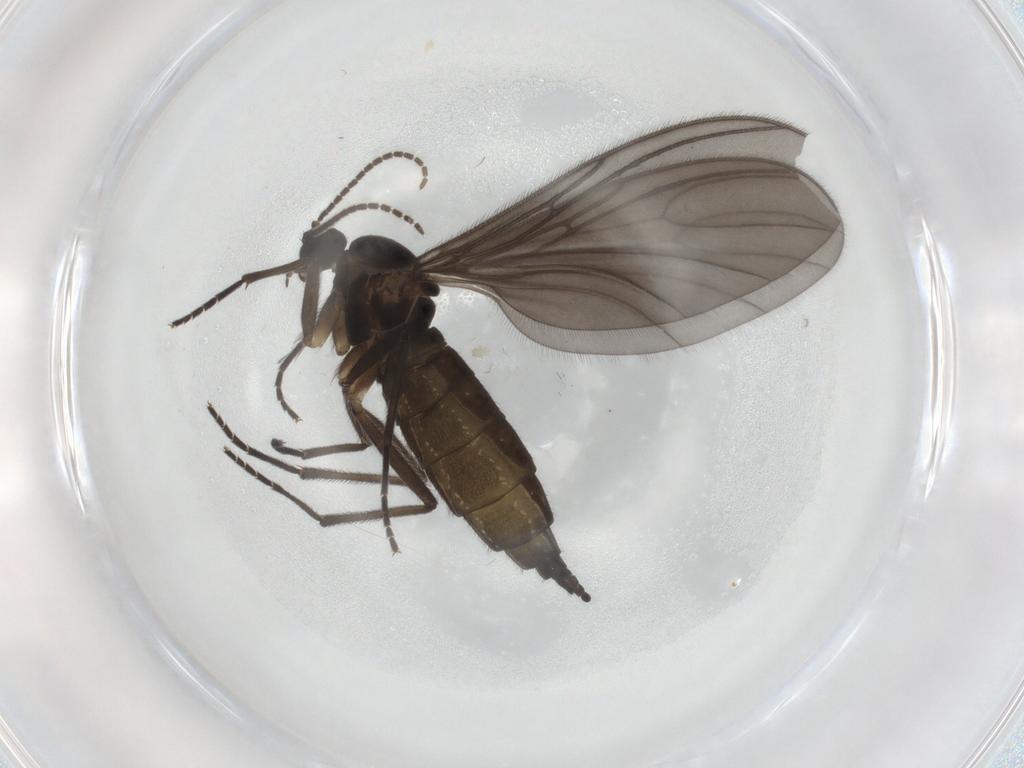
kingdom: Animalia
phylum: Arthropoda
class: Insecta
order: Diptera
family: Sciaridae
